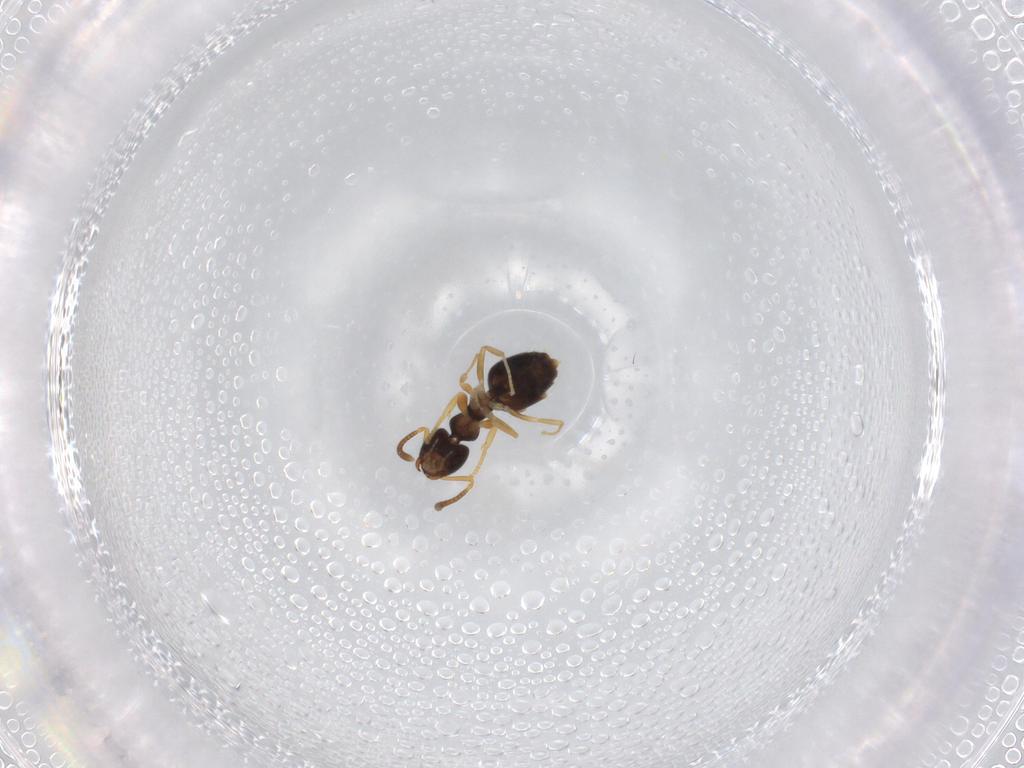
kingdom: Animalia
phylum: Arthropoda
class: Insecta
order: Hymenoptera
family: Formicidae
